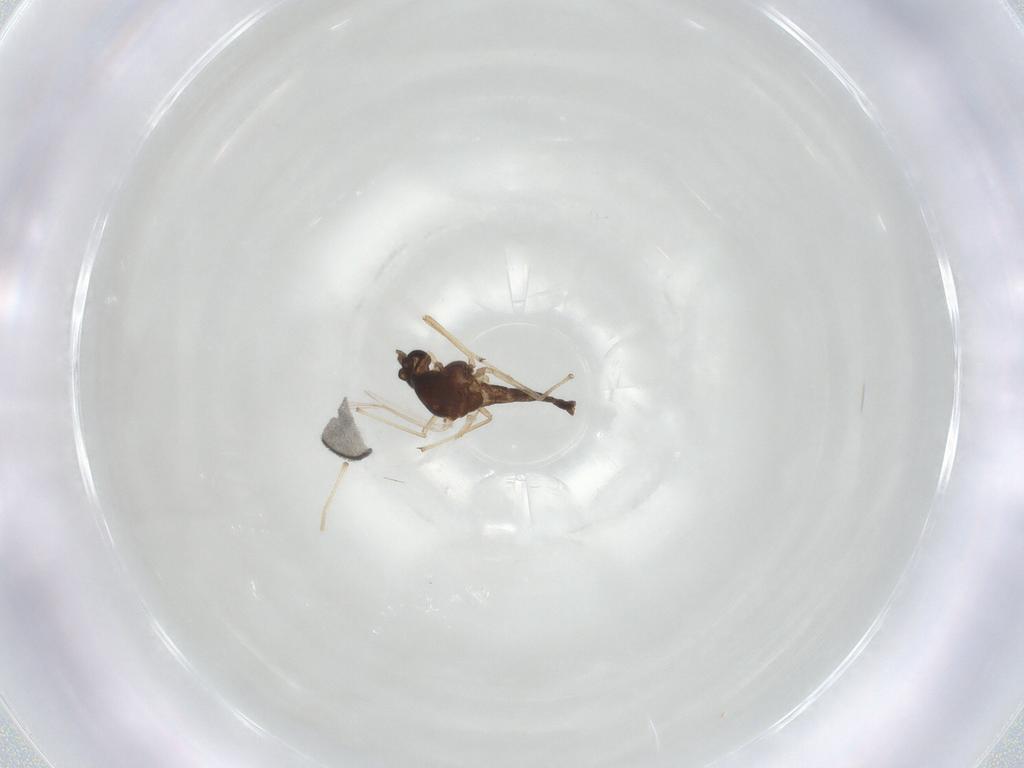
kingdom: Animalia
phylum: Arthropoda
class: Insecta
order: Diptera
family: Chironomidae
